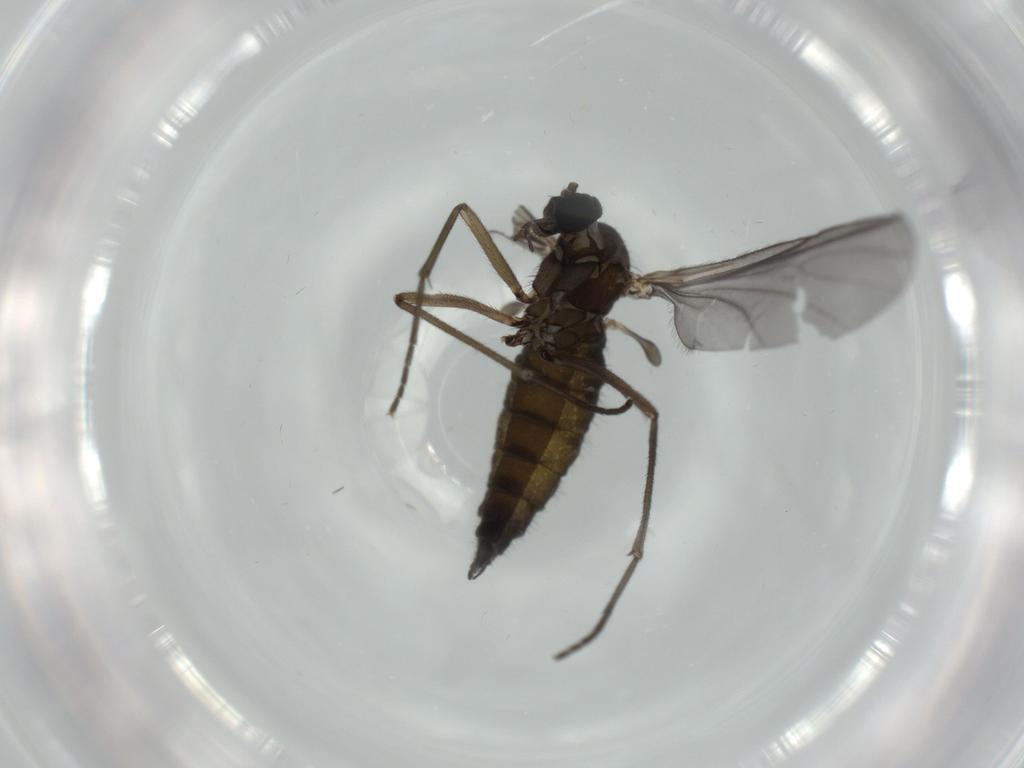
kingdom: Animalia
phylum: Arthropoda
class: Insecta
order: Diptera
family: Sciaridae
